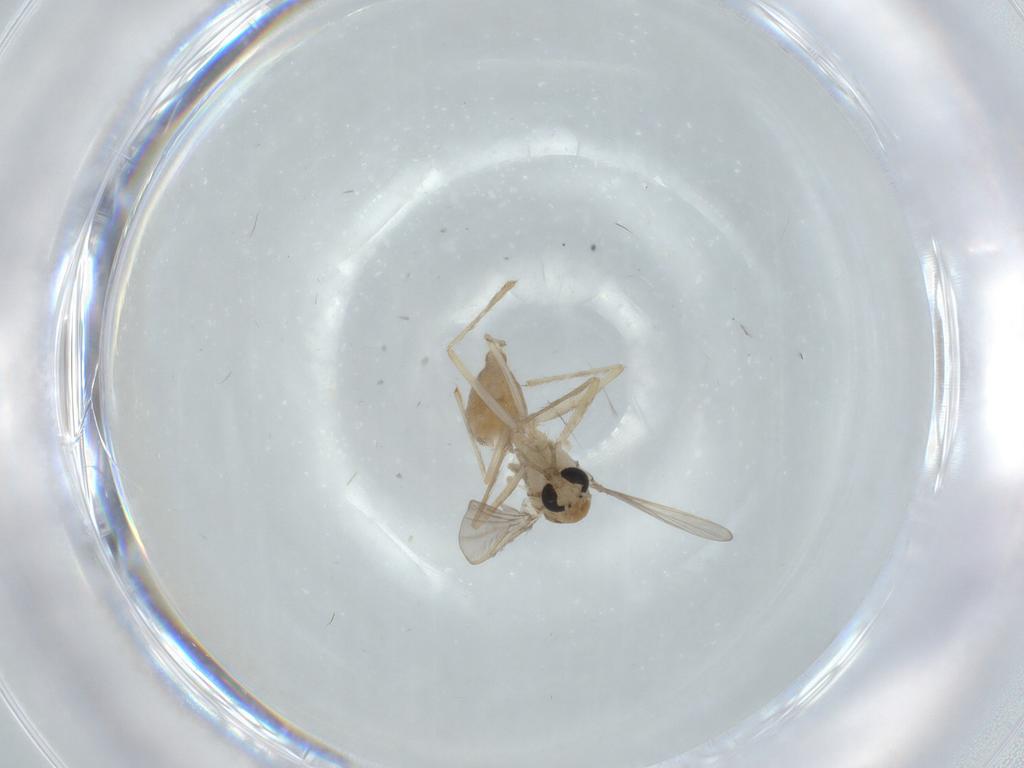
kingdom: Animalia
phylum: Arthropoda
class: Insecta
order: Diptera
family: Chironomidae
